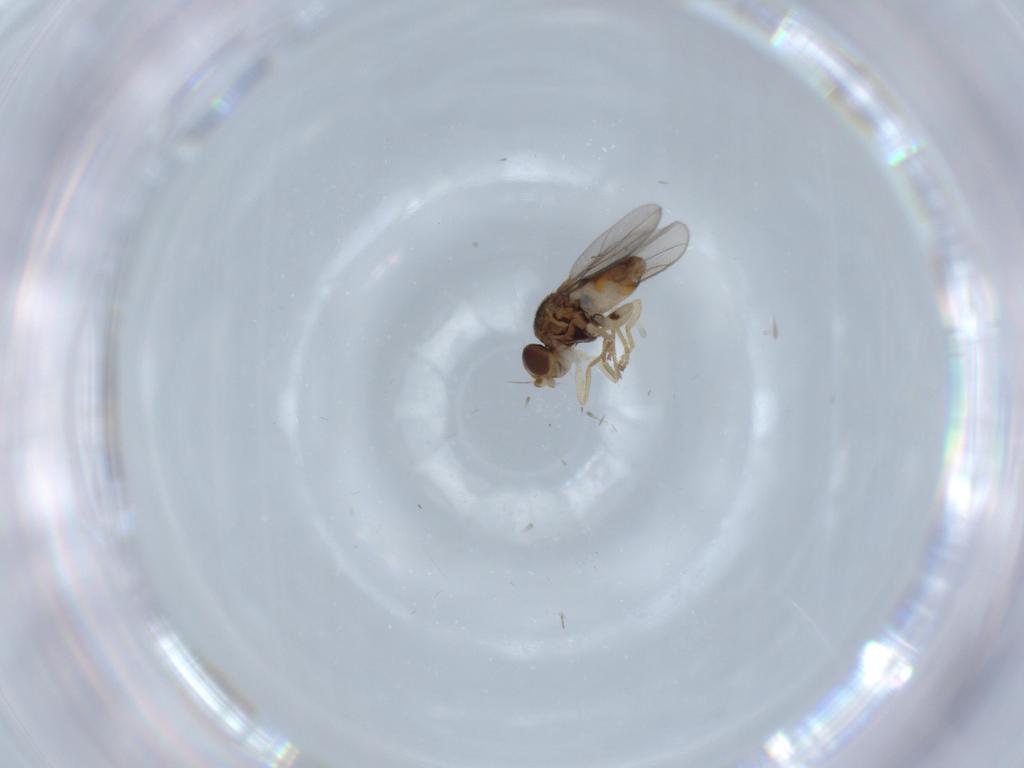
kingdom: Animalia
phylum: Arthropoda
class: Insecta
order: Diptera
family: Chloropidae
